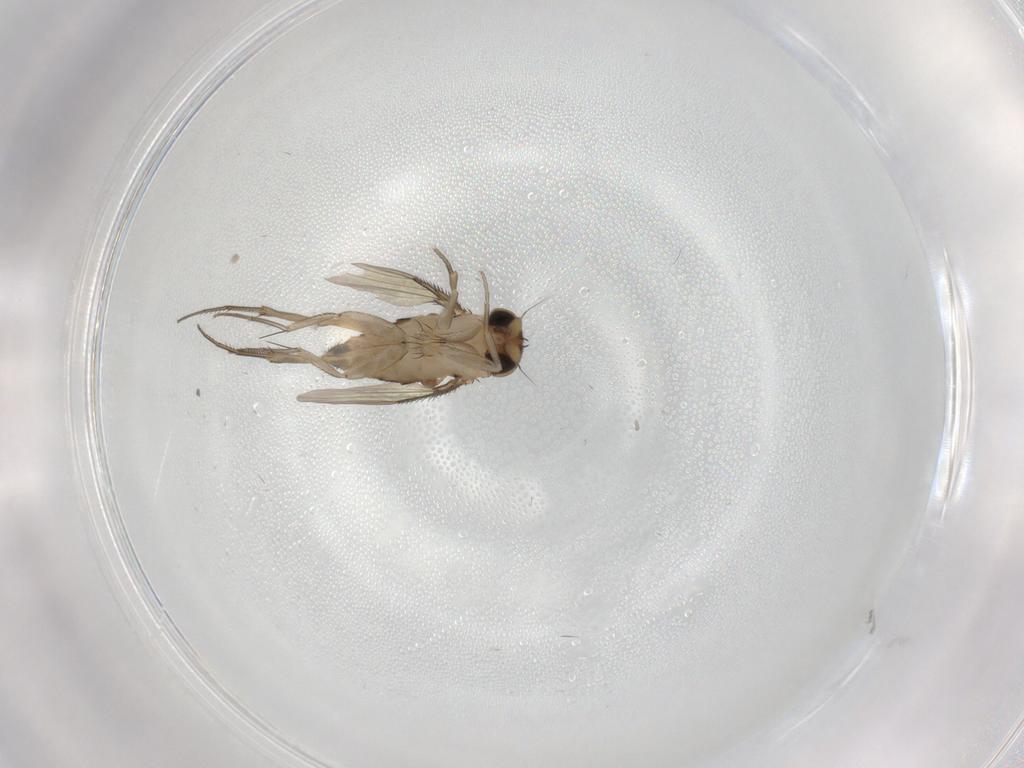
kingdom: Animalia
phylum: Arthropoda
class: Insecta
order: Diptera
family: Phoridae
